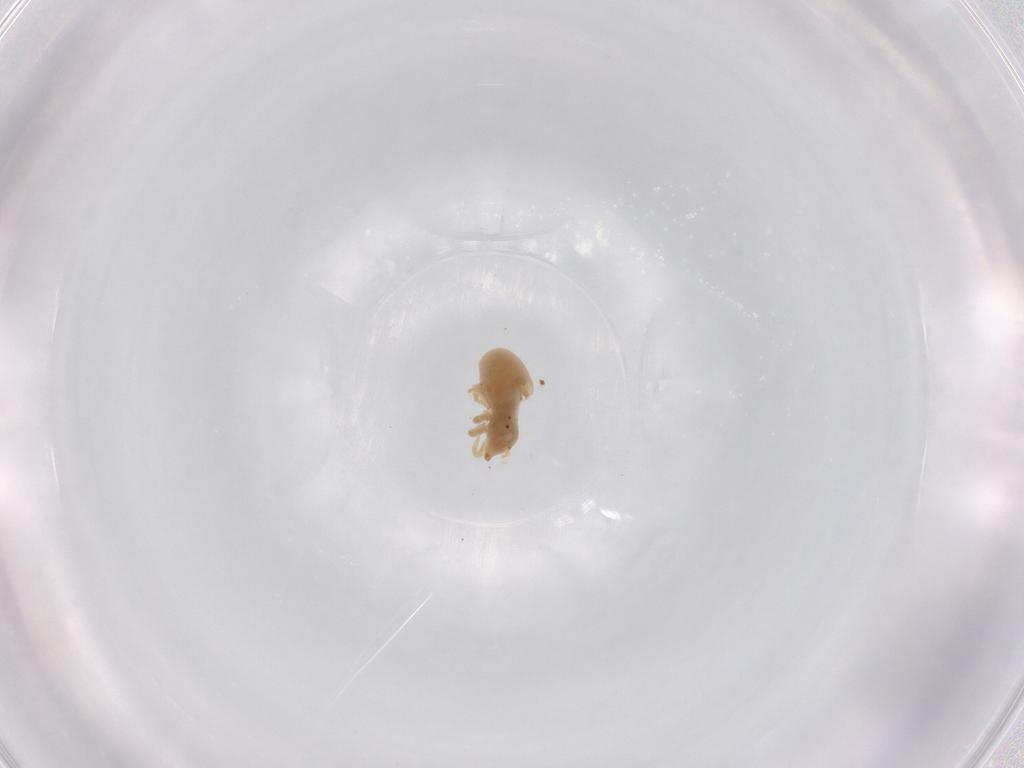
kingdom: Animalia
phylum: Arthropoda
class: Arachnida
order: Trombidiformes
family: Bdellidae
